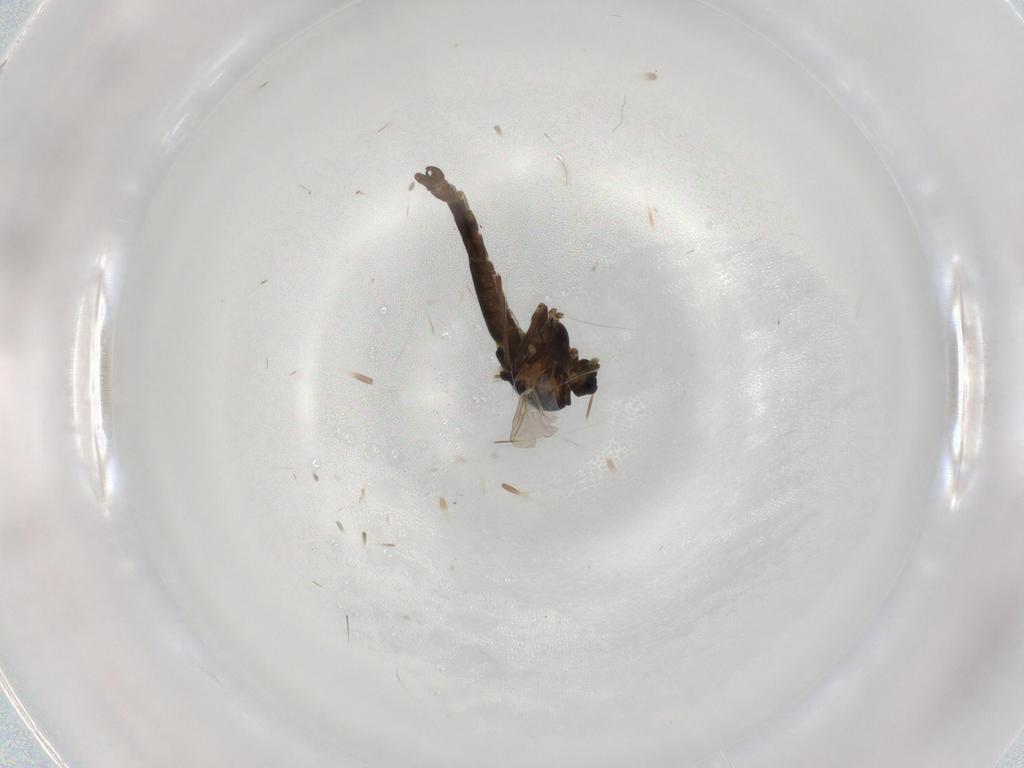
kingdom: Animalia
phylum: Arthropoda
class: Insecta
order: Diptera
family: Chironomidae
